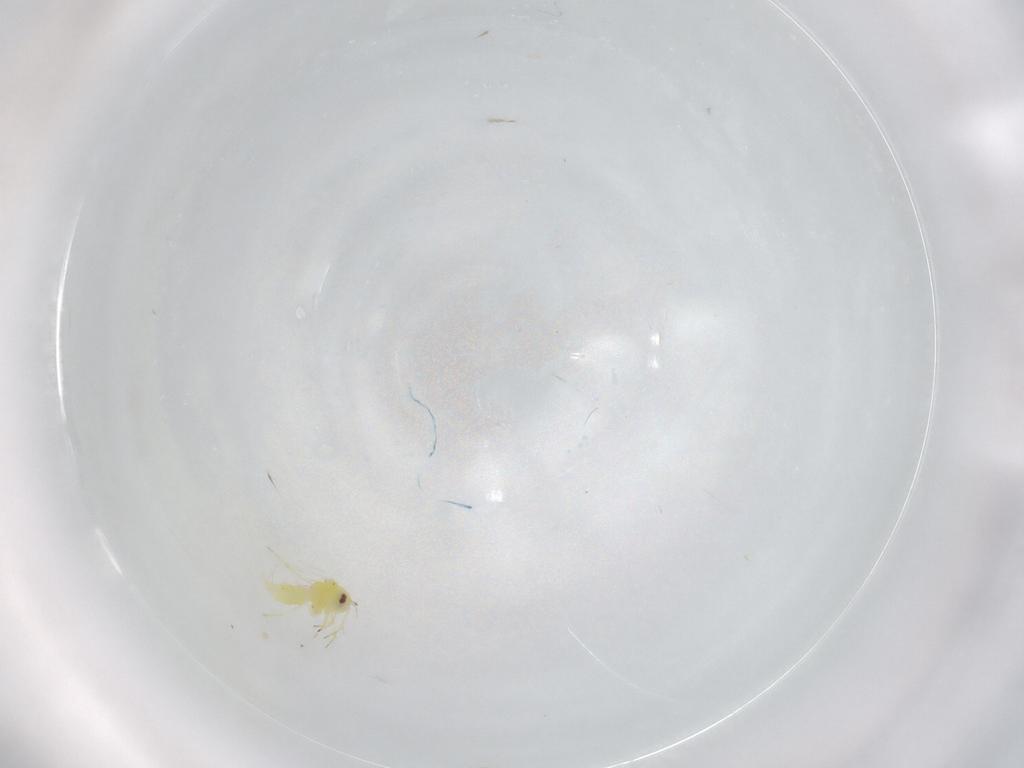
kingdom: Animalia
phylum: Arthropoda
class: Insecta
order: Hemiptera
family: Aleyrodidae
